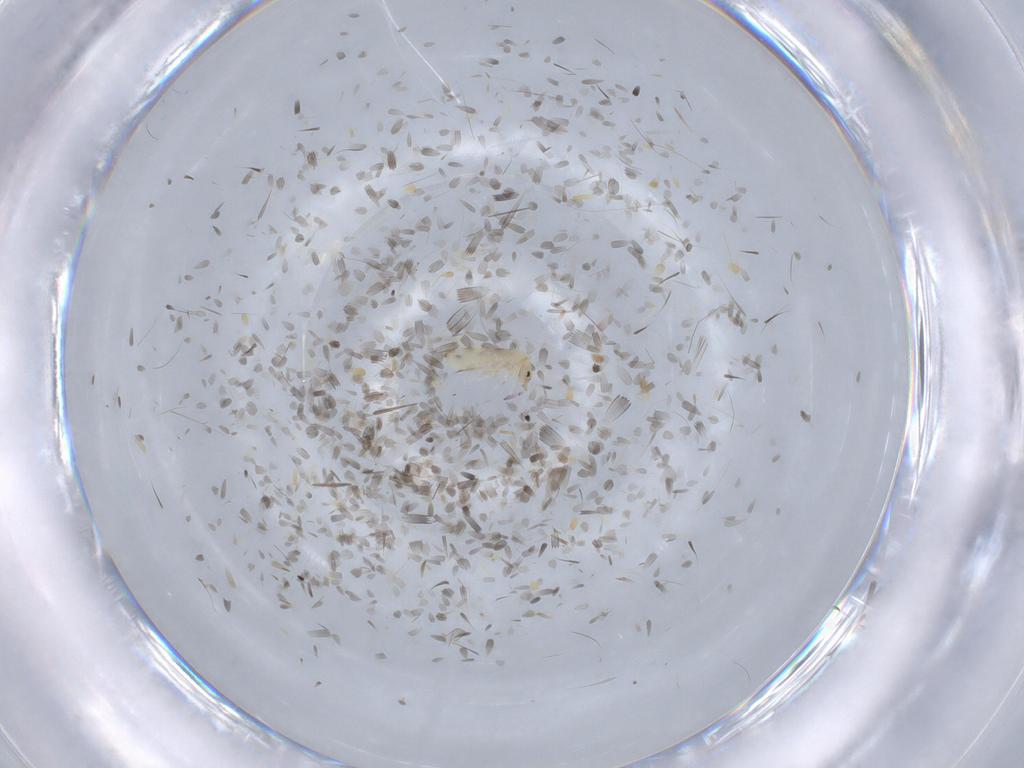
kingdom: Animalia
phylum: Arthropoda
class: Collembola
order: Entomobryomorpha
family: Entomobryidae
